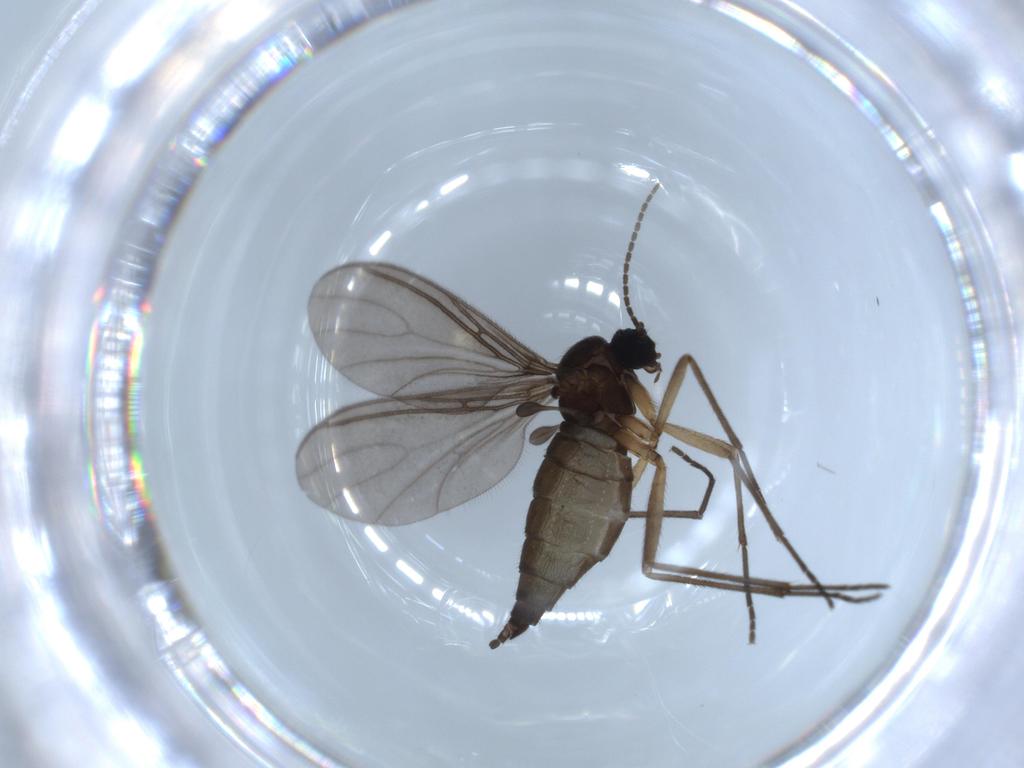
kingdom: Animalia
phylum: Arthropoda
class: Insecta
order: Diptera
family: Sciaridae
